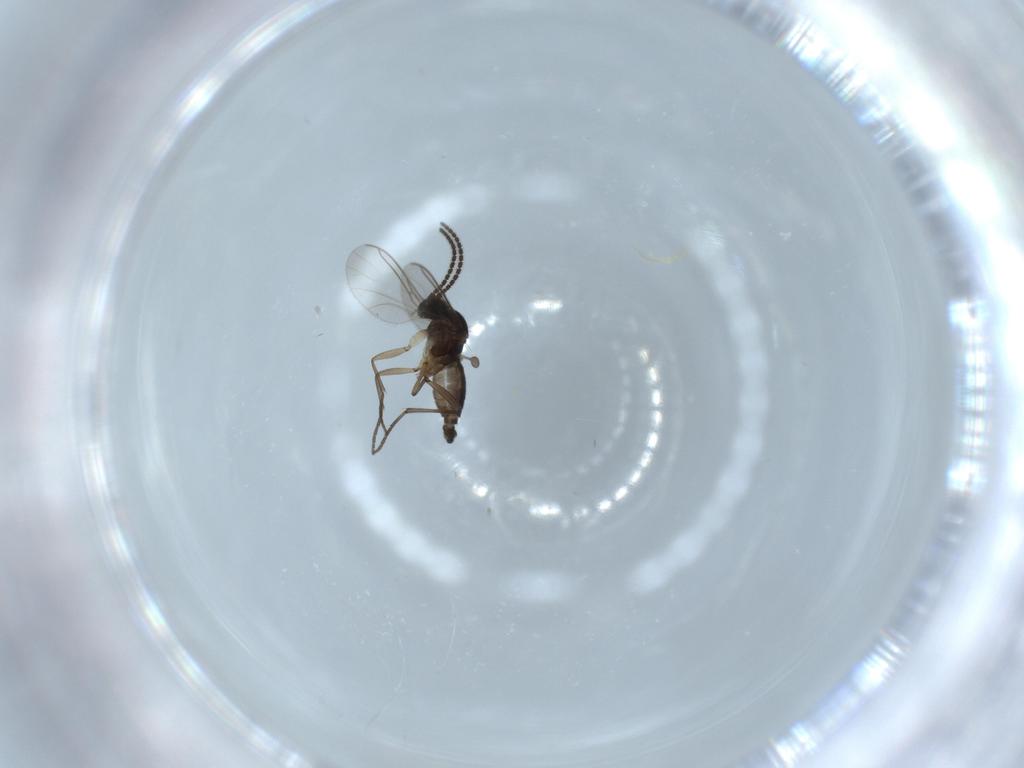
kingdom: Animalia
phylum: Arthropoda
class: Insecta
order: Diptera
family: Sciaridae
